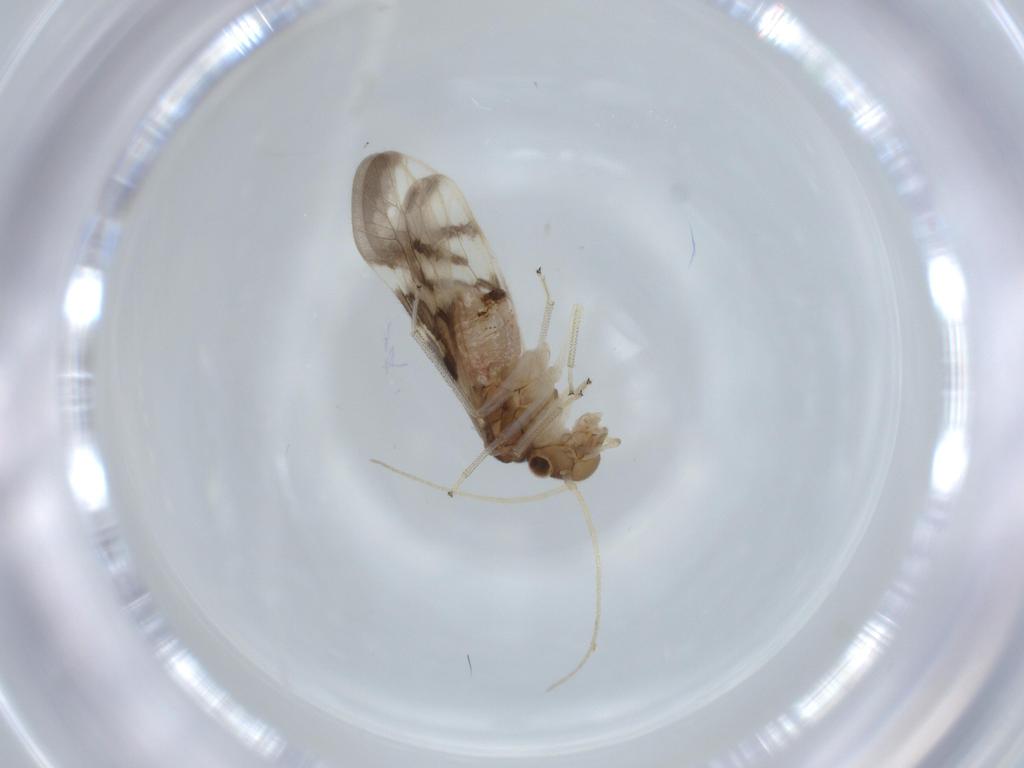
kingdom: Animalia
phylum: Arthropoda
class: Insecta
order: Psocodea
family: Caeciliusidae
